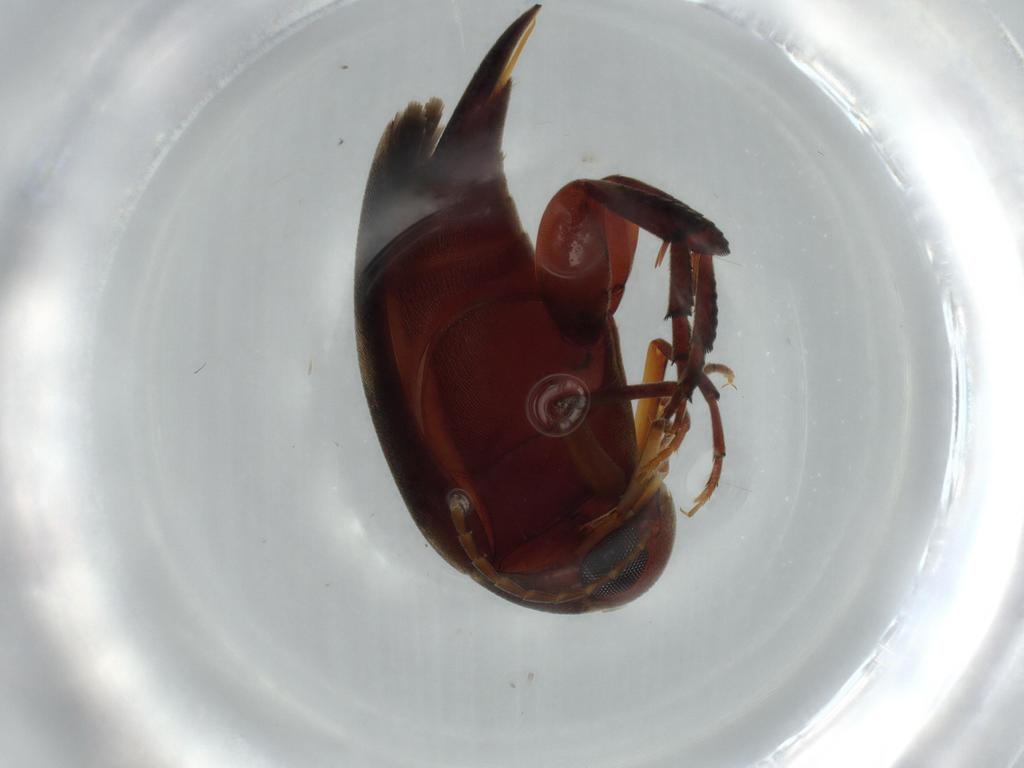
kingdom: Animalia
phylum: Arthropoda
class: Insecta
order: Coleoptera
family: Mordellidae
